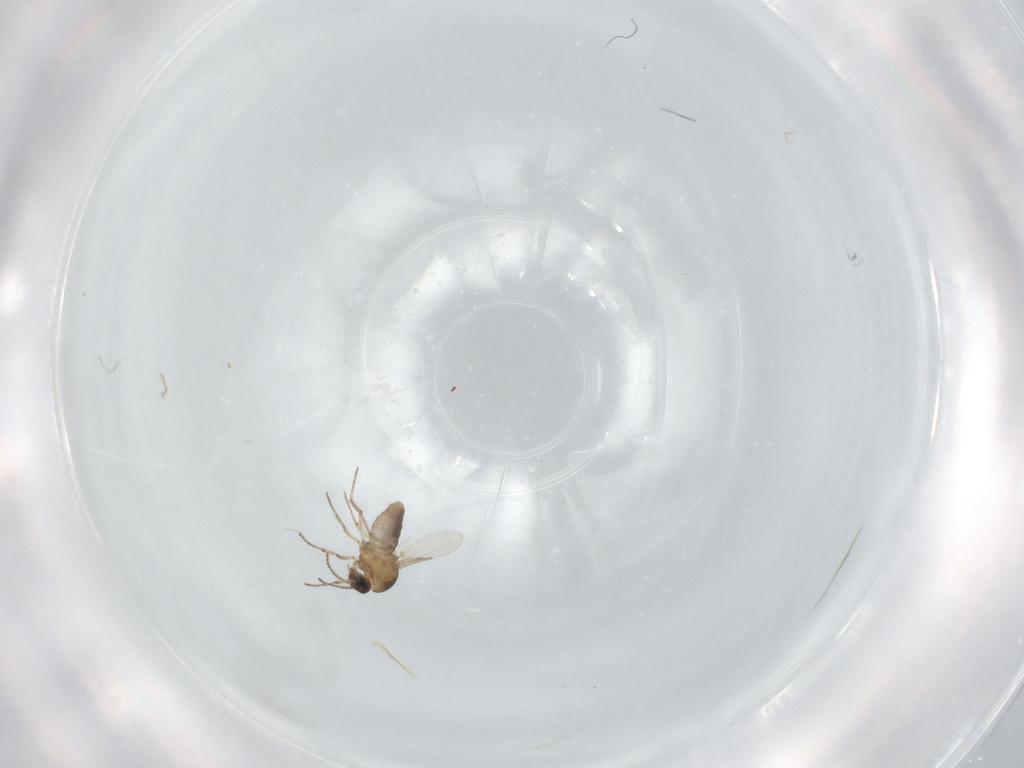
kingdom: Animalia
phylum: Arthropoda
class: Insecta
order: Diptera
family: Ceratopogonidae
